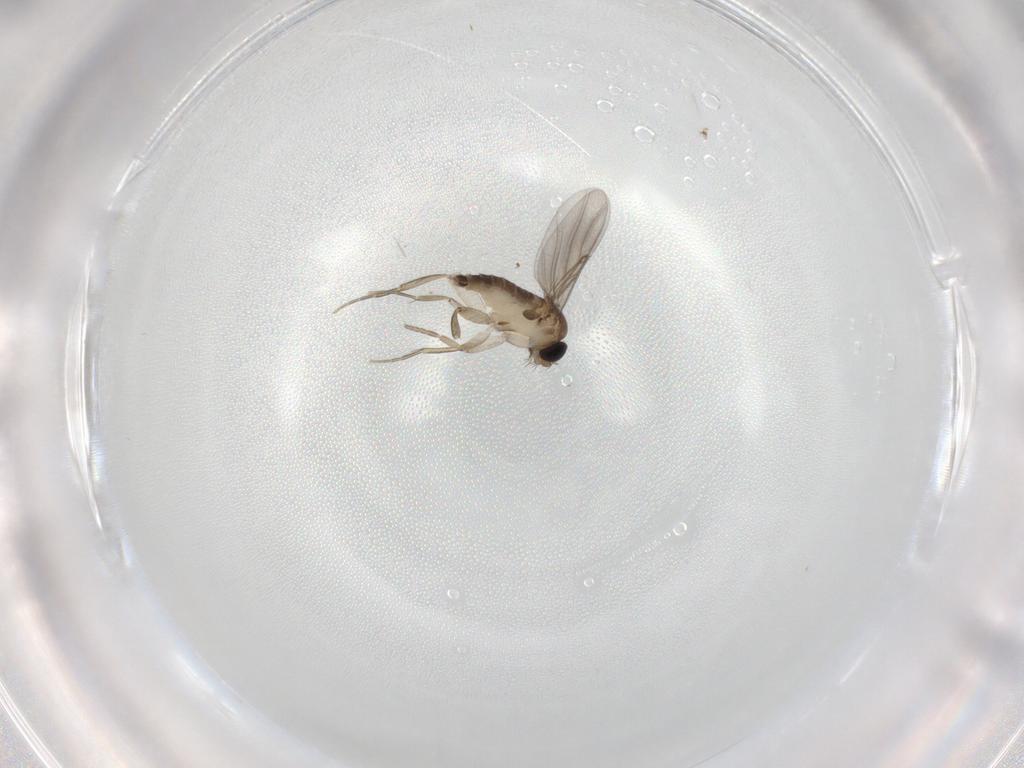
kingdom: Animalia
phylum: Arthropoda
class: Insecta
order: Diptera
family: Phoridae
